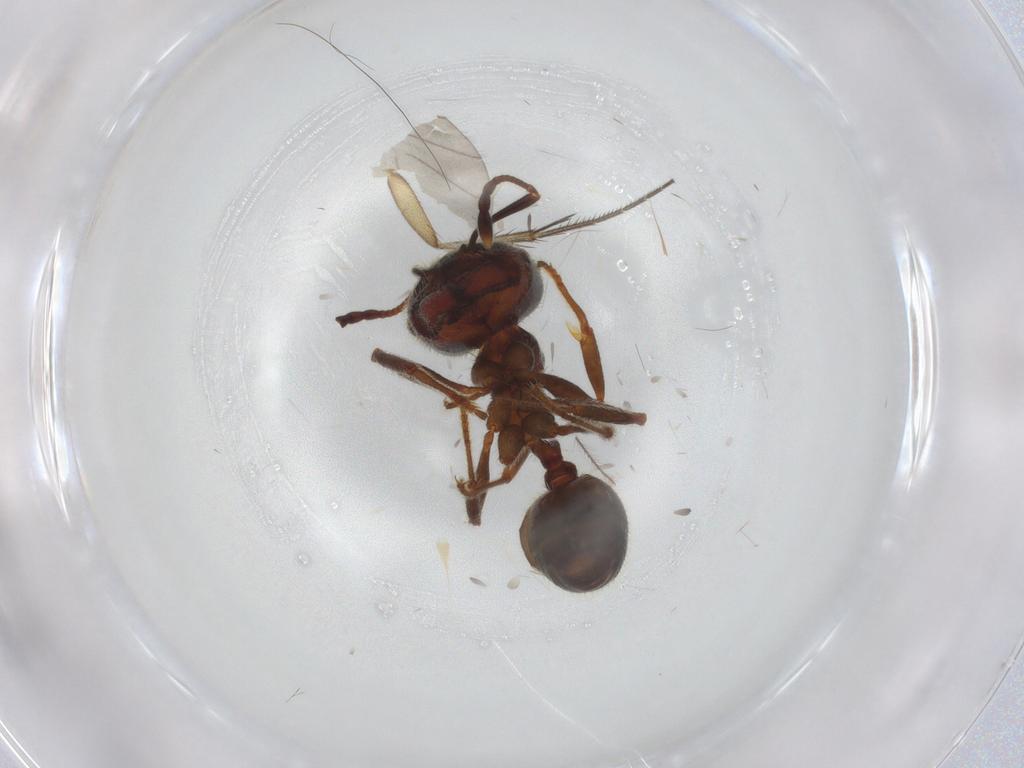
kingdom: Animalia
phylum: Arthropoda
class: Insecta
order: Hymenoptera
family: Formicidae
